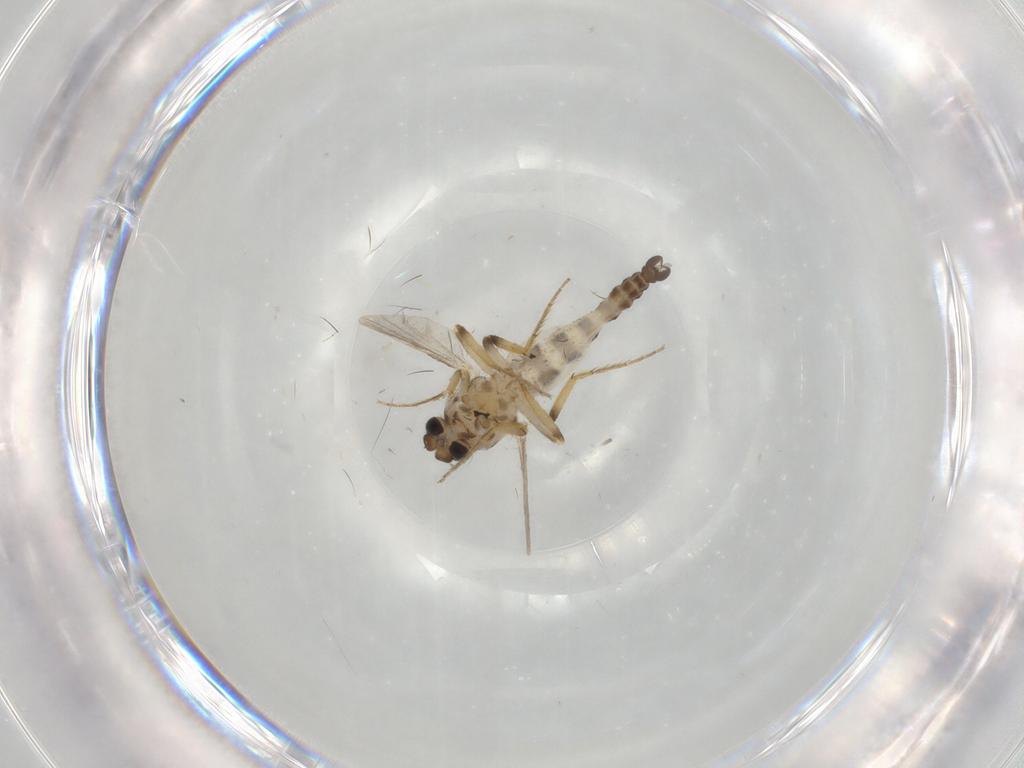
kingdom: Animalia
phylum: Arthropoda
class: Insecta
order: Diptera
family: Ceratopogonidae
